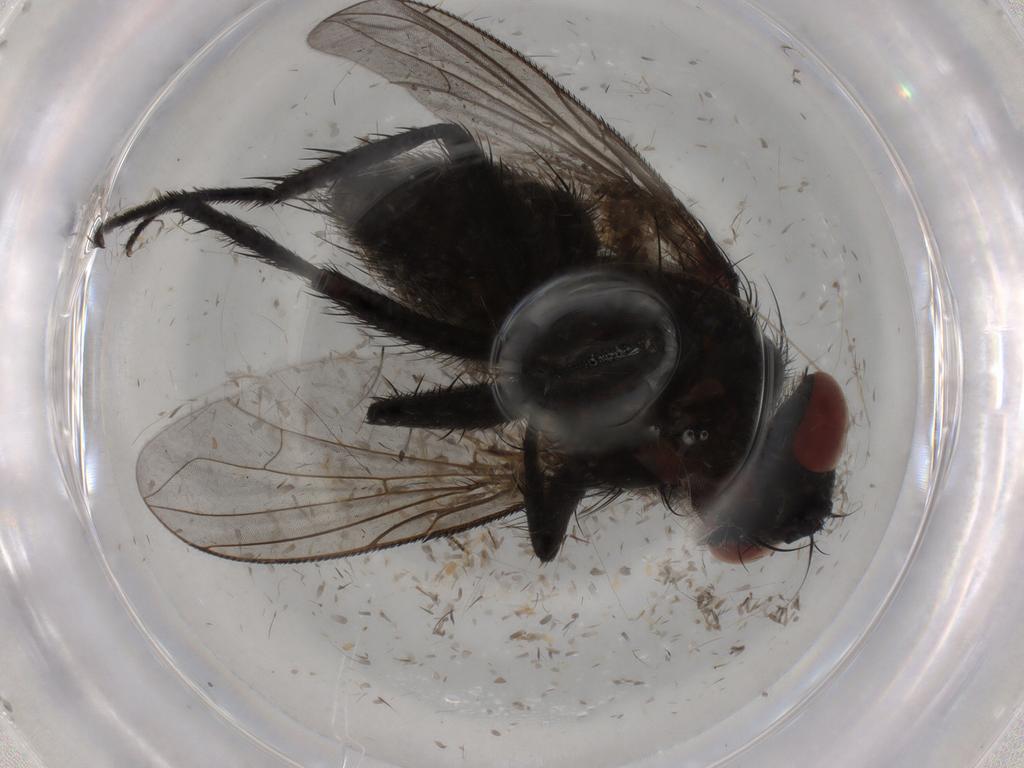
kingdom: Animalia
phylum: Arthropoda
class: Insecta
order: Diptera
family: Tachinidae
